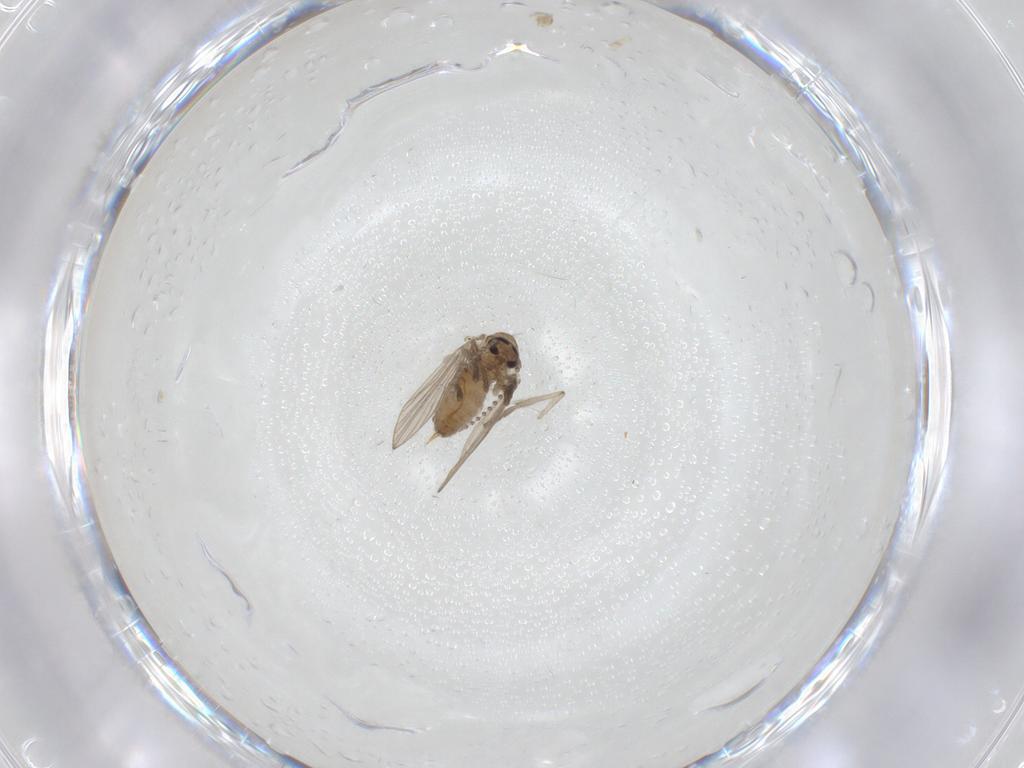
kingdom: Animalia
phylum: Arthropoda
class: Insecta
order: Diptera
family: Psychodidae
